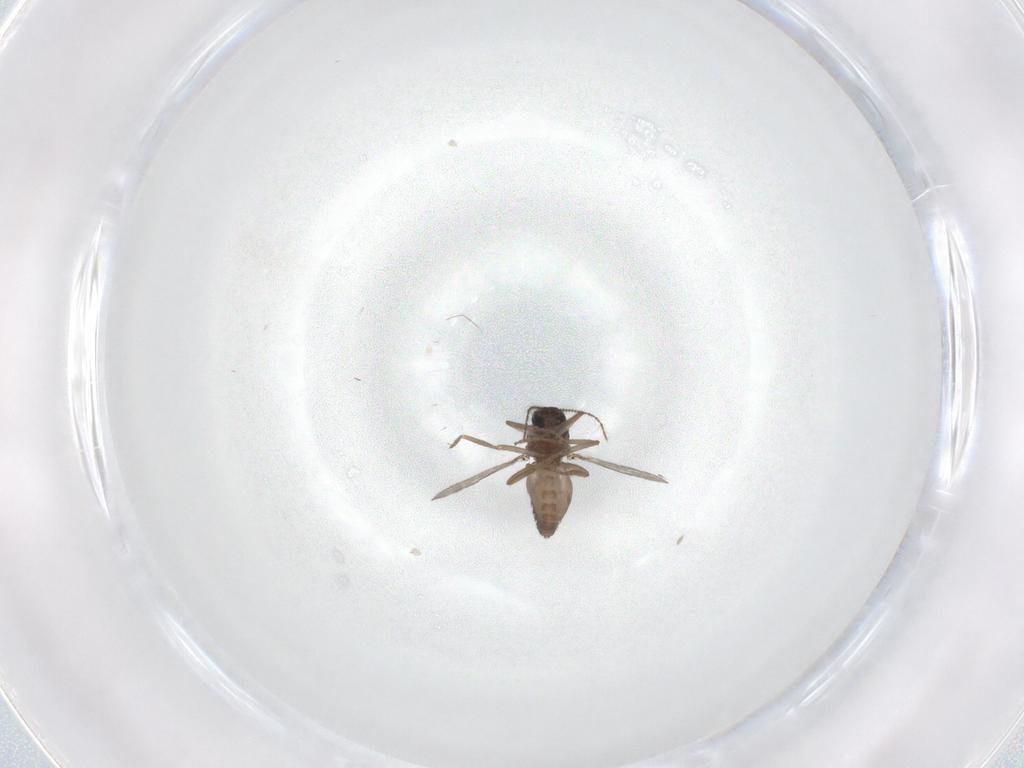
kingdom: Animalia
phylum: Arthropoda
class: Insecta
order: Diptera
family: Ceratopogonidae
